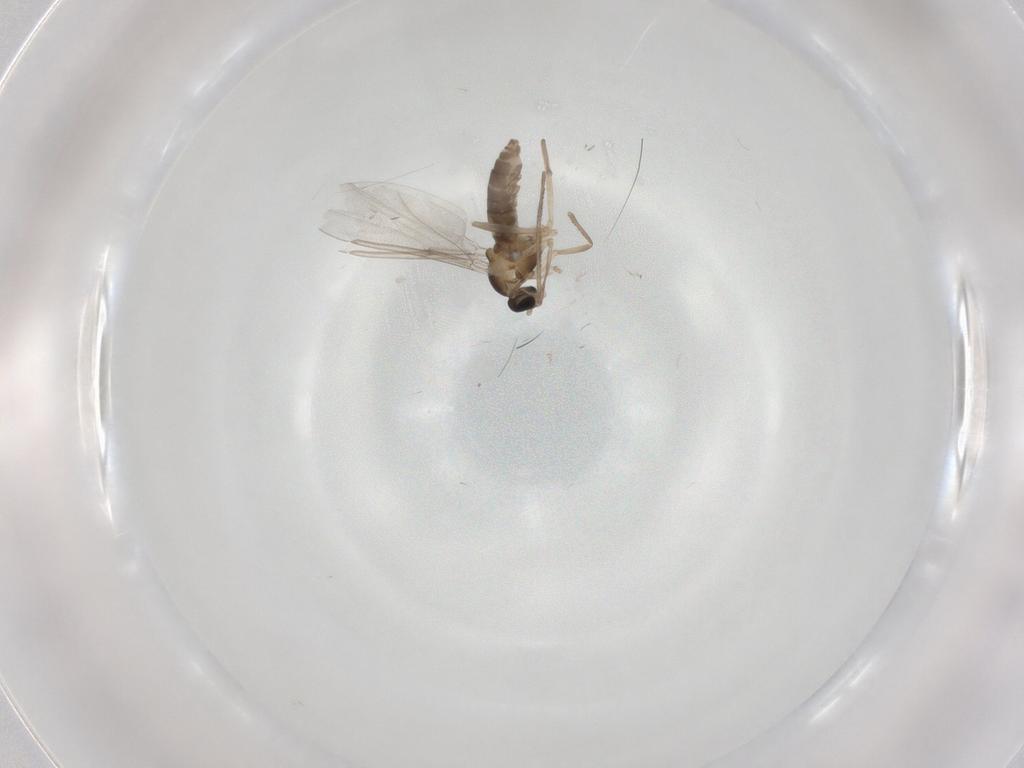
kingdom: Animalia
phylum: Arthropoda
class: Insecta
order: Diptera
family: Cecidomyiidae
